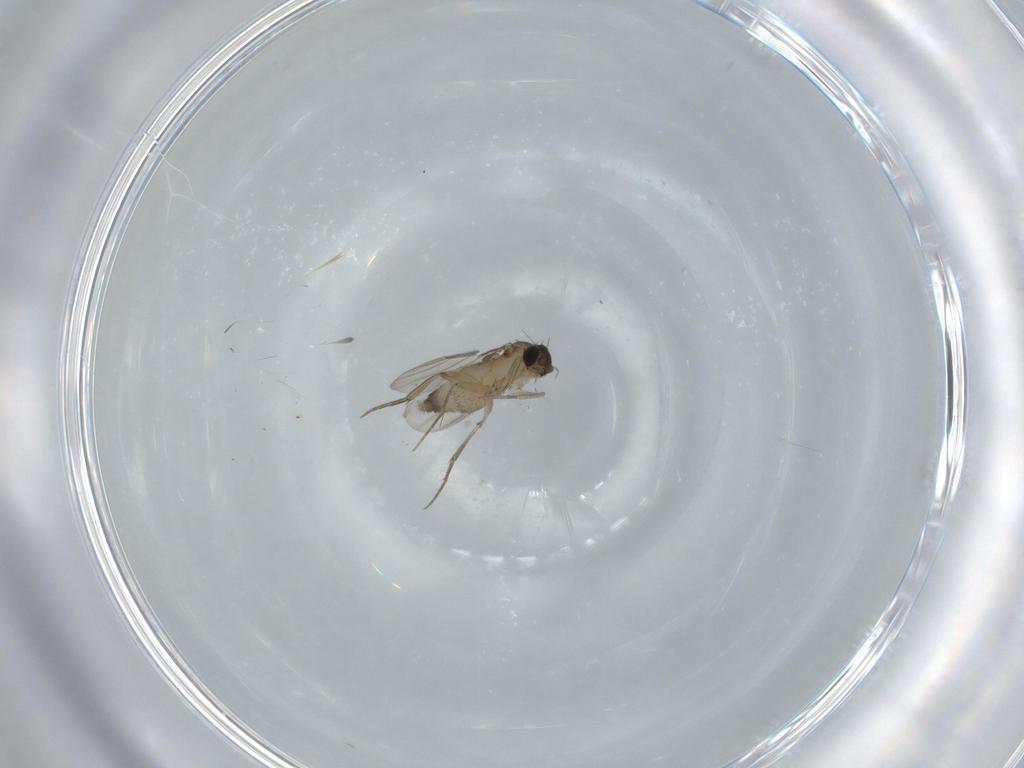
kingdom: Animalia
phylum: Arthropoda
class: Insecta
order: Diptera
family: Phoridae
